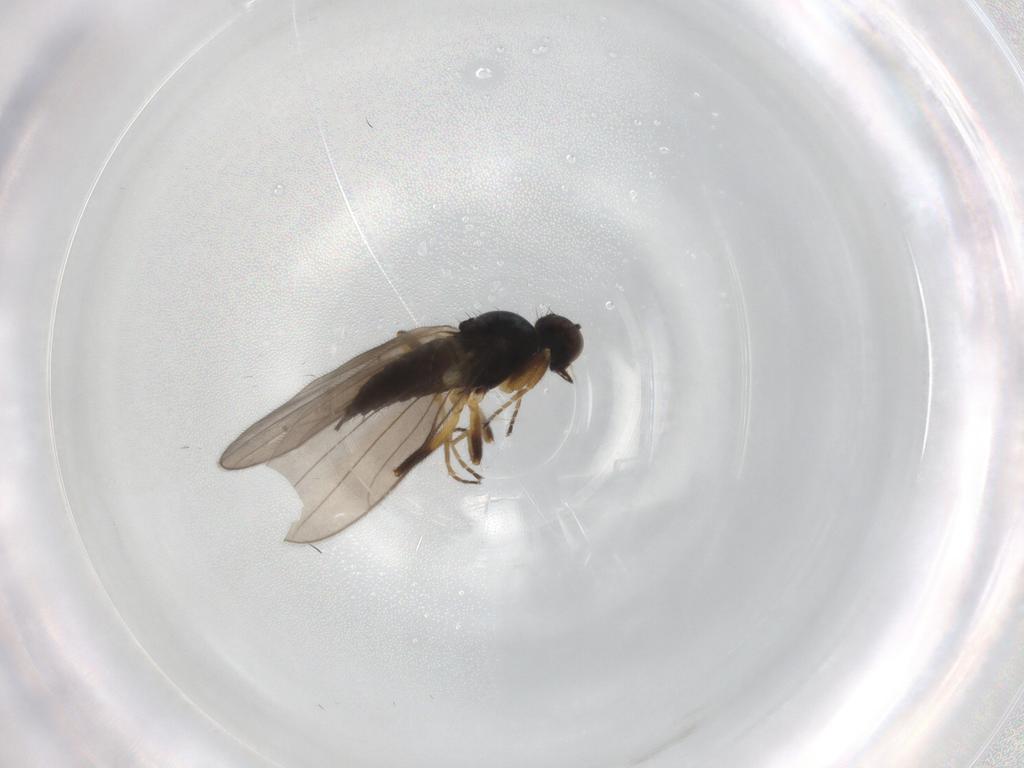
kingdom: Animalia
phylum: Arthropoda
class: Insecta
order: Diptera
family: Hybotidae
